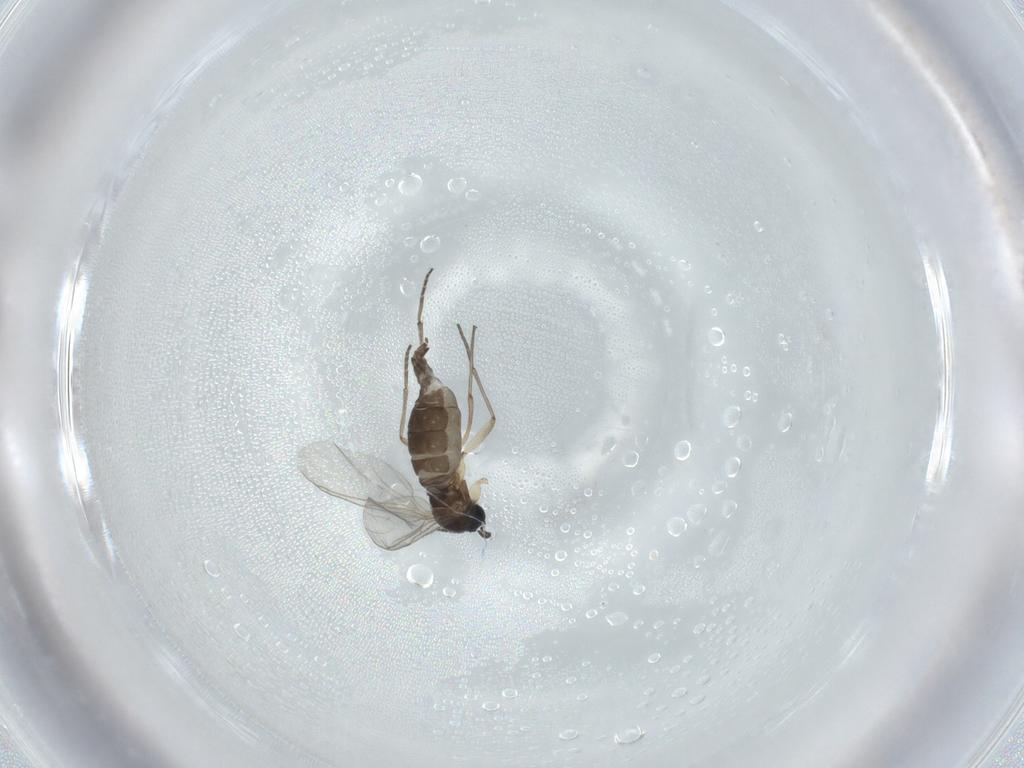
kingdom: Animalia
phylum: Arthropoda
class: Insecta
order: Diptera
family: Sciaridae
